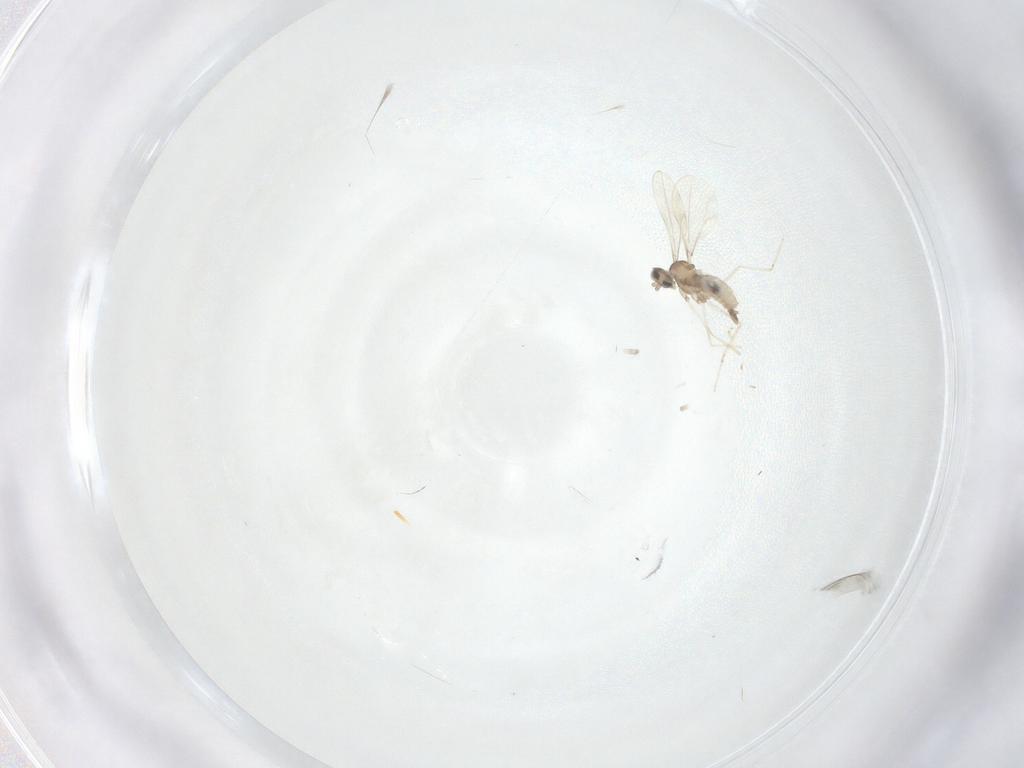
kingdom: Animalia
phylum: Arthropoda
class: Insecta
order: Diptera
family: Cecidomyiidae
